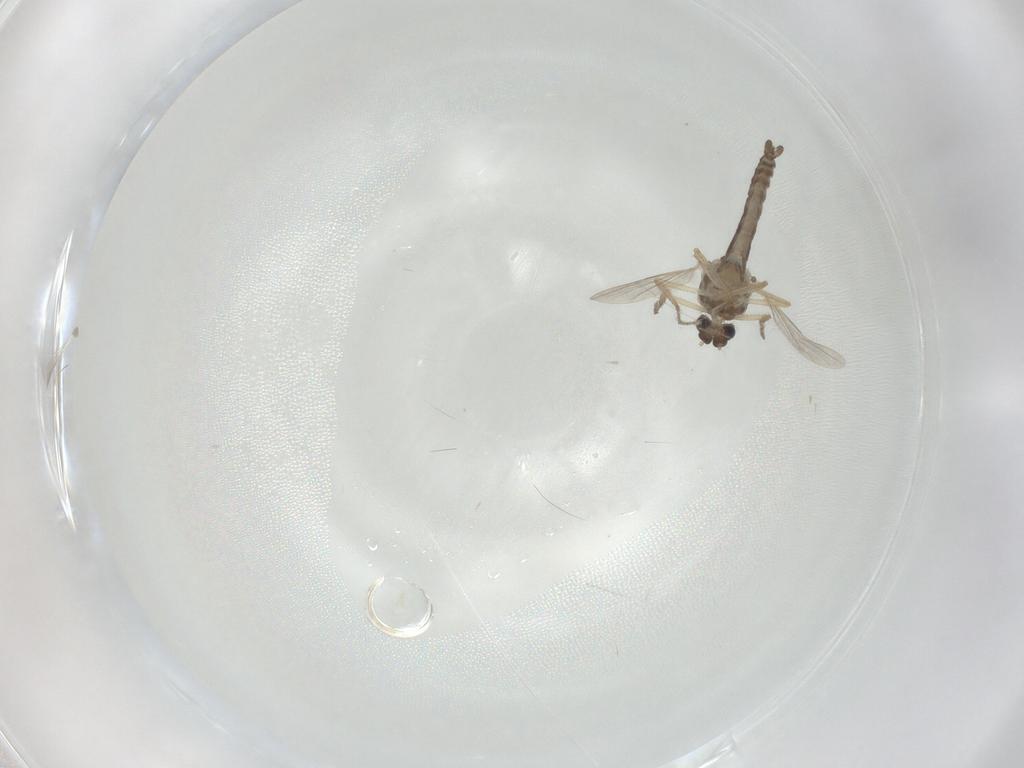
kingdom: Animalia
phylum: Arthropoda
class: Insecta
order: Diptera
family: Ceratopogonidae
